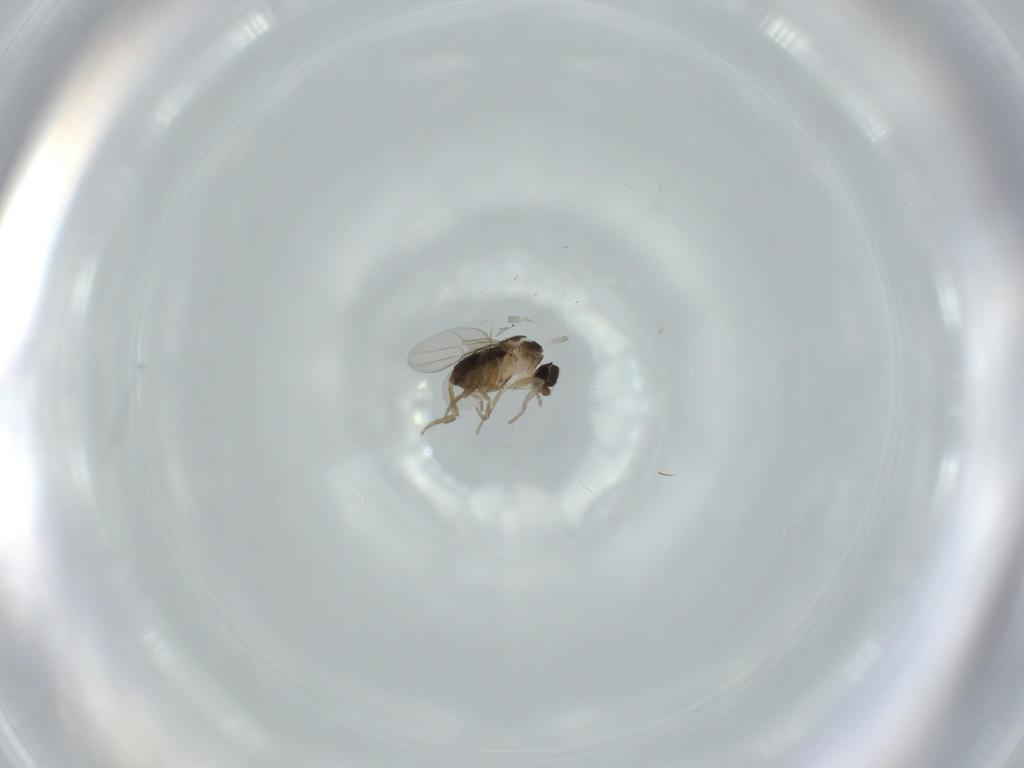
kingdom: Animalia
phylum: Arthropoda
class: Insecta
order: Diptera
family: Phoridae
